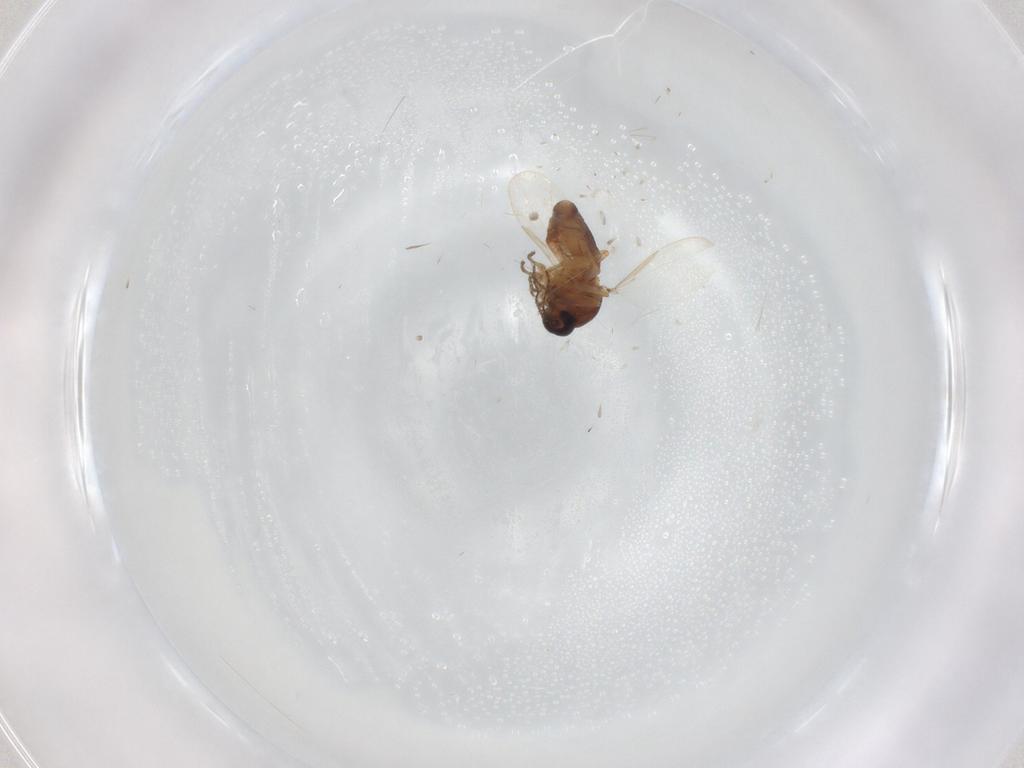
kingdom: Animalia
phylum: Arthropoda
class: Insecta
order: Diptera
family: Ceratopogonidae
